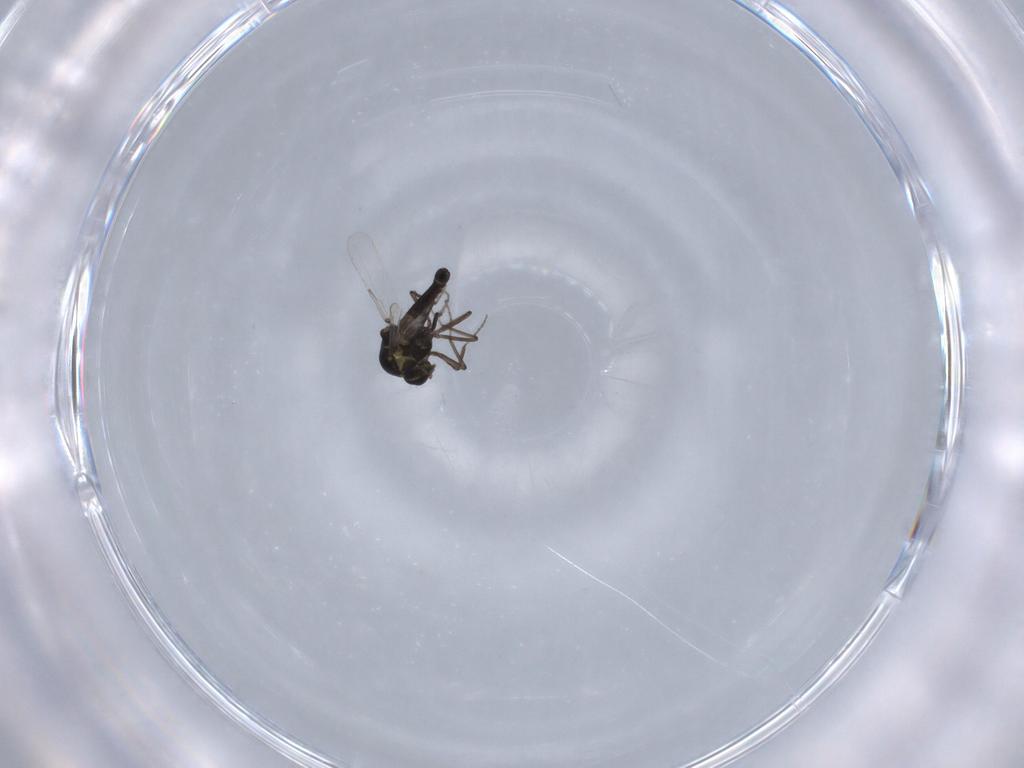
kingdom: Animalia
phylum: Arthropoda
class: Insecta
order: Diptera
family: Ceratopogonidae
